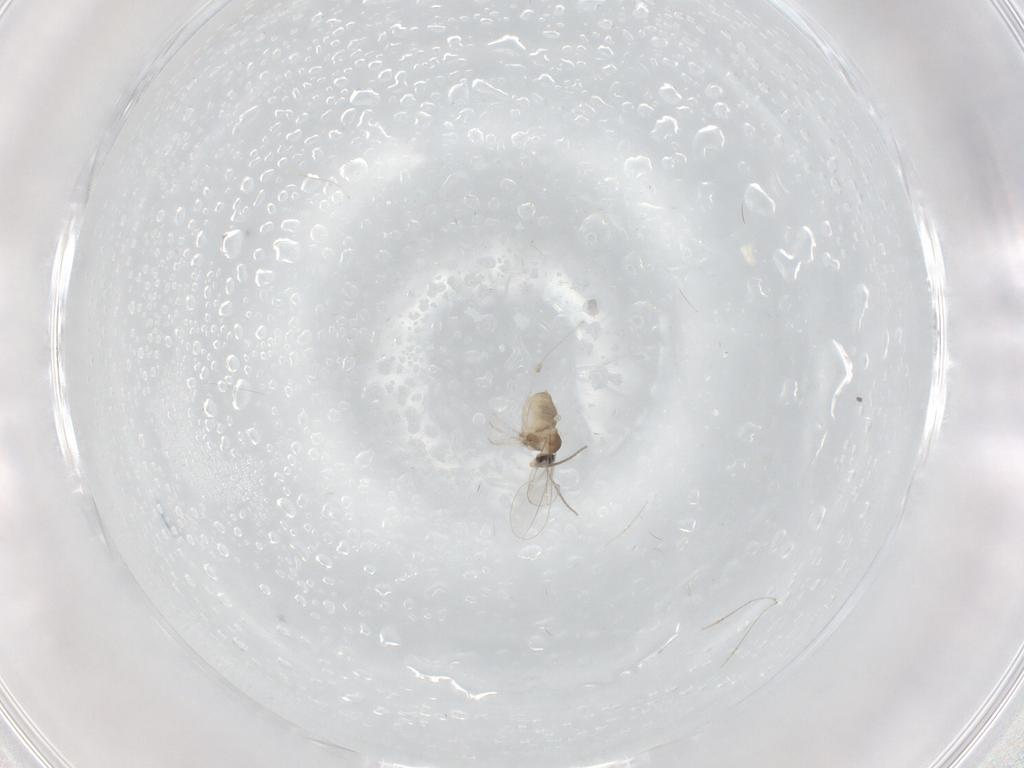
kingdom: Animalia
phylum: Arthropoda
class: Insecta
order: Diptera
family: Cecidomyiidae
